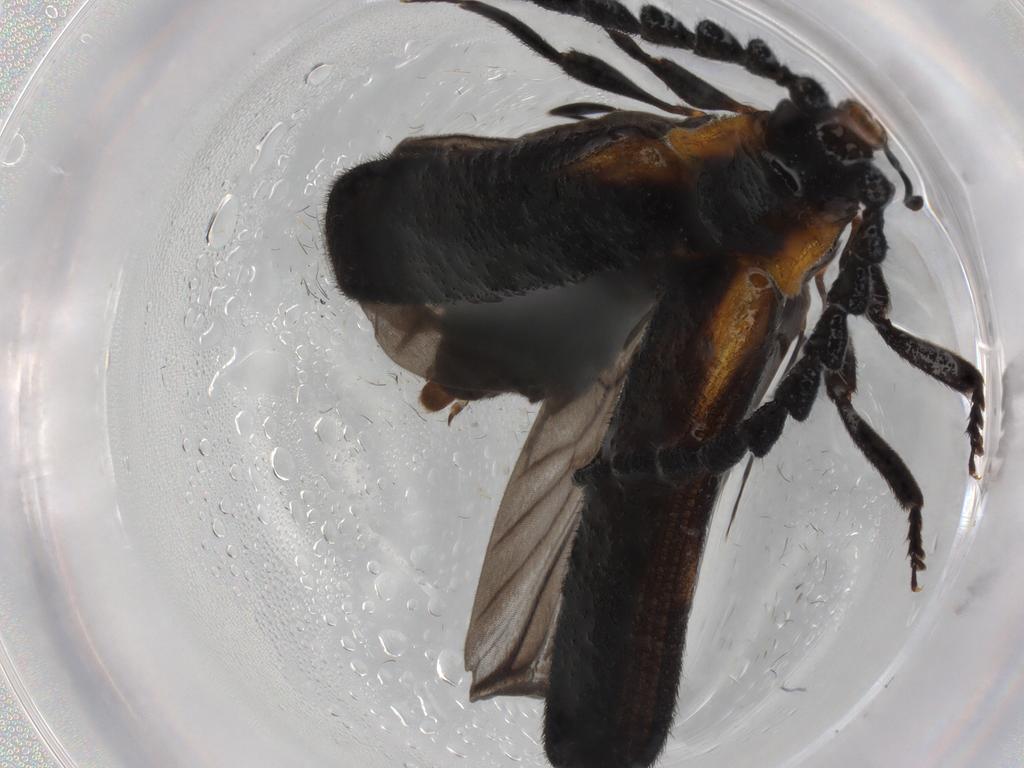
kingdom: Animalia
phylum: Arthropoda
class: Insecta
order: Coleoptera
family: Lycidae
